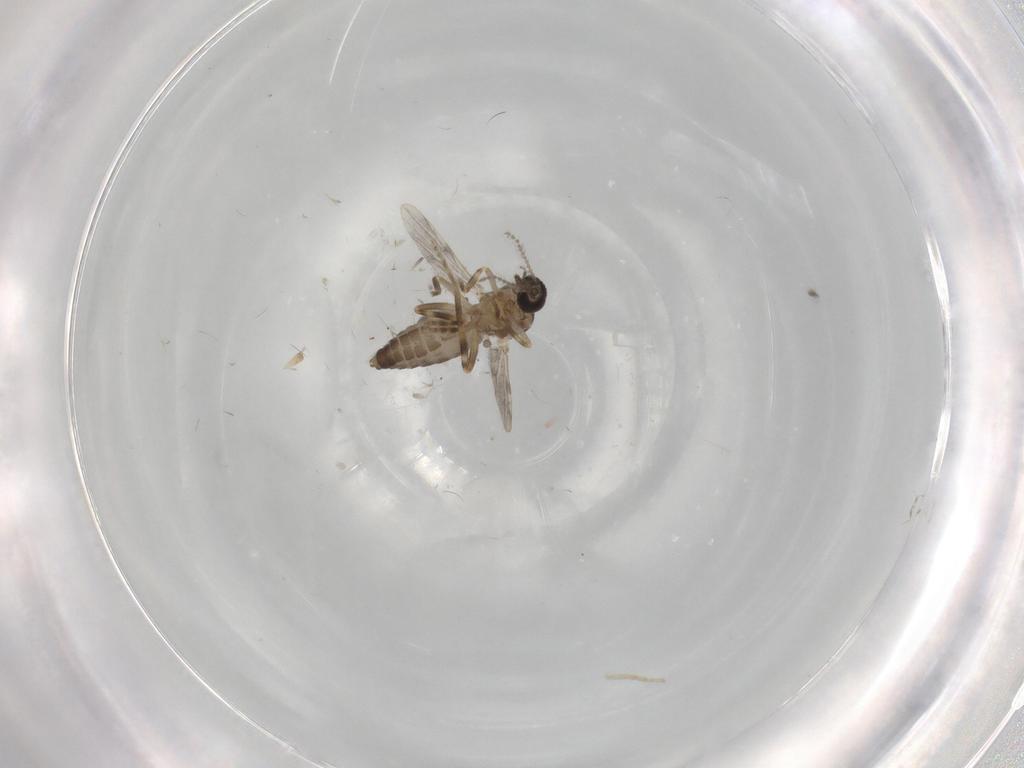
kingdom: Animalia
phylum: Arthropoda
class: Insecta
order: Diptera
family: Ceratopogonidae
